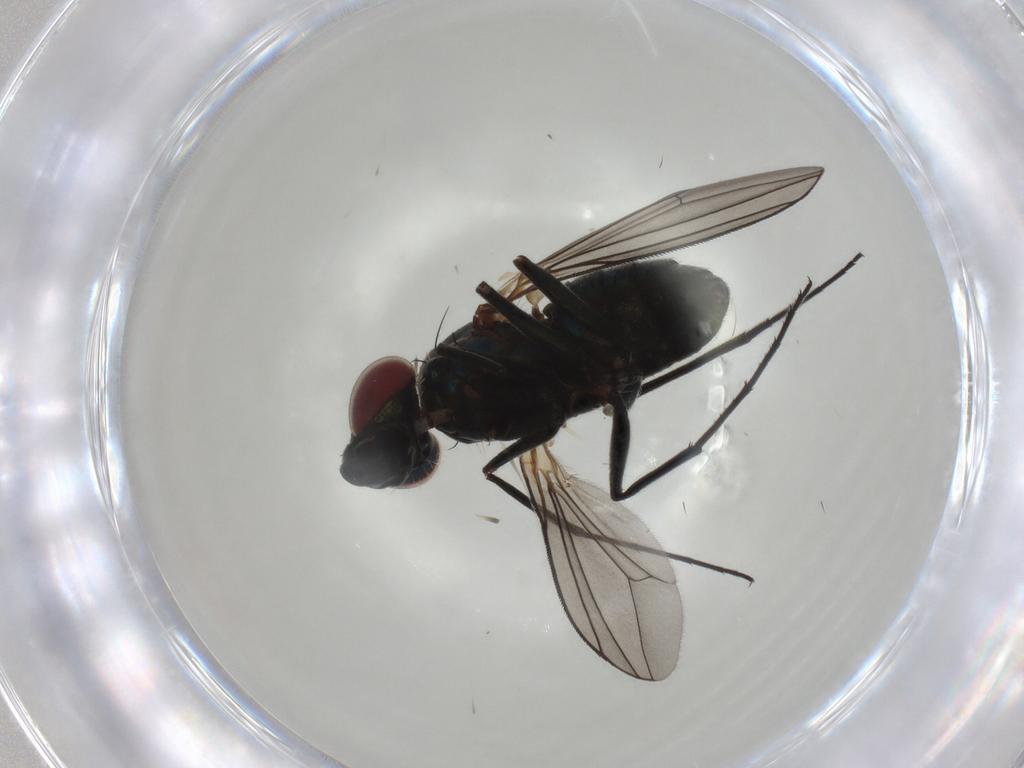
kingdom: Animalia
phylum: Arthropoda
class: Insecta
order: Diptera
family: Dolichopodidae
